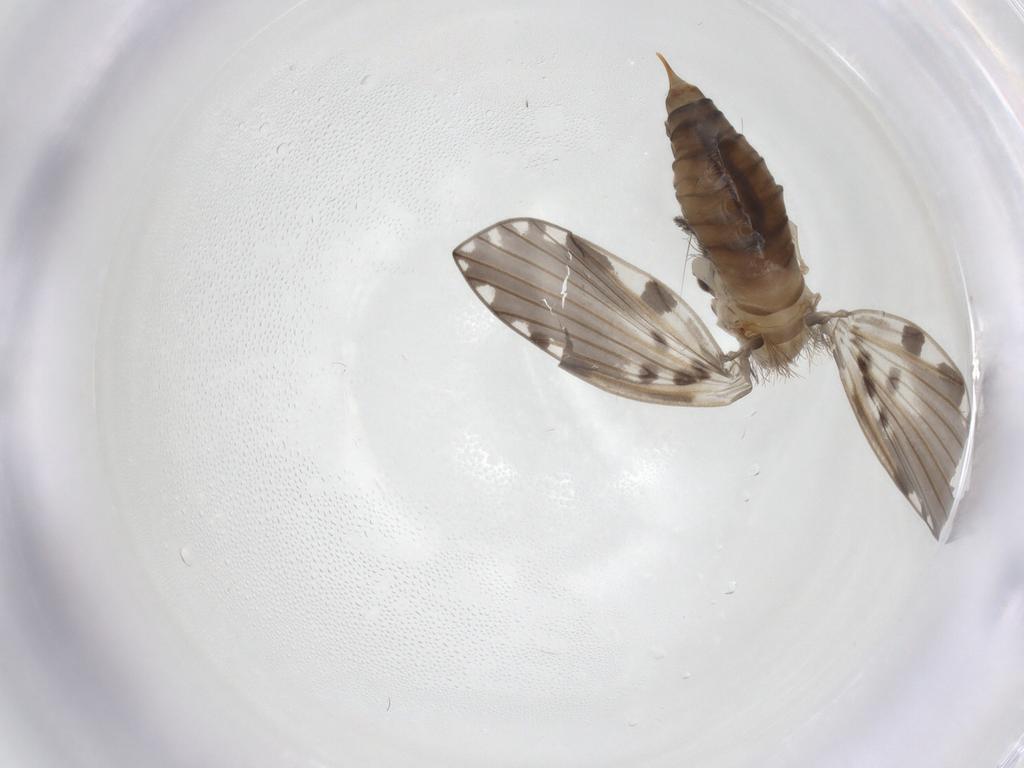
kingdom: Animalia
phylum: Arthropoda
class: Insecta
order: Diptera
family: Psychodidae
